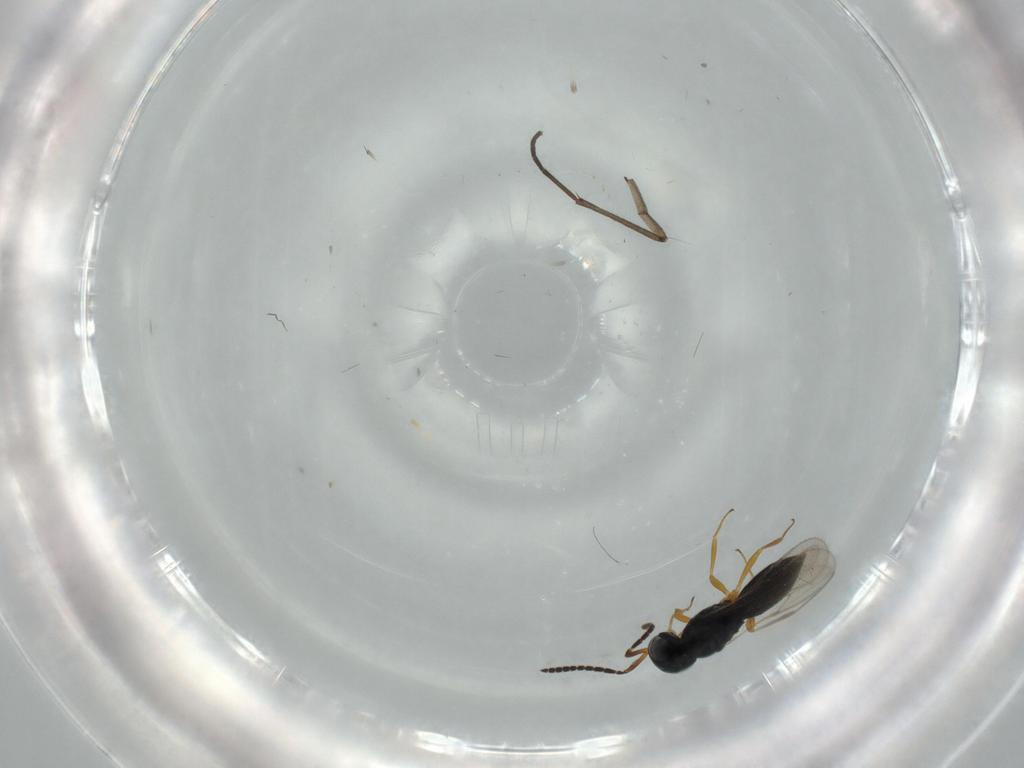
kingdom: Animalia
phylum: Arthropoda
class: Insecta
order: Hymenoptera
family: Scelionidae
